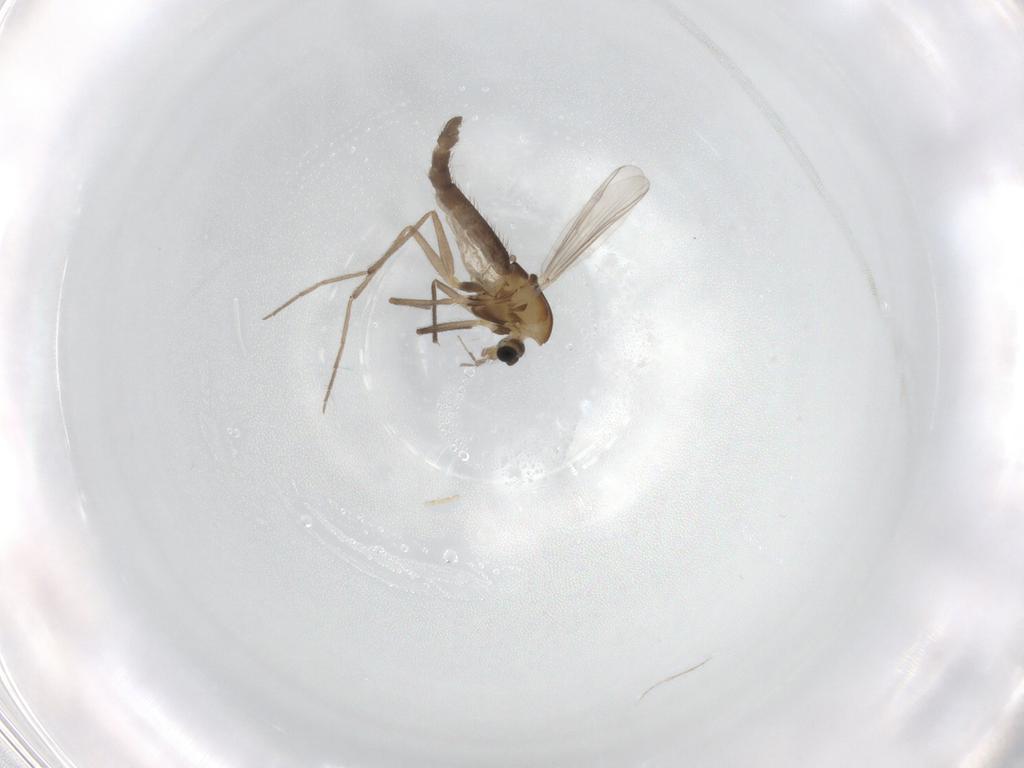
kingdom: Animalia
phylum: Arthropoda
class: Insecta
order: Diptera
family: Chironomidae
